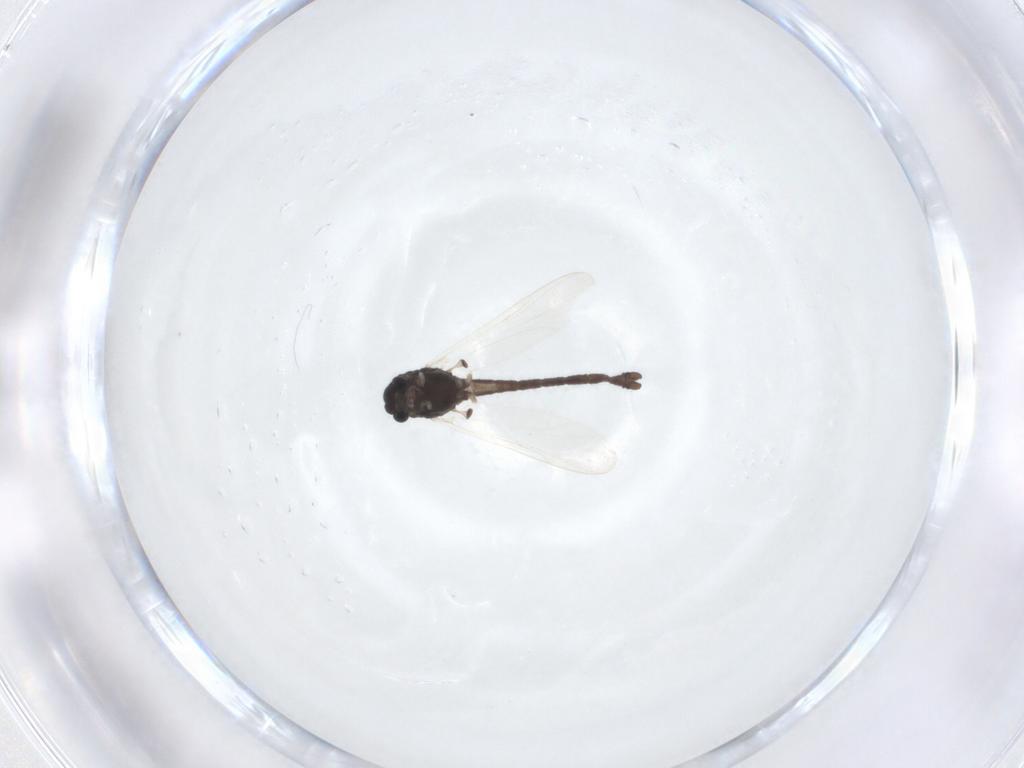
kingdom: Animalia
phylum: Arthropoda
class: Insecta
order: Diptera
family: Chironomidae
